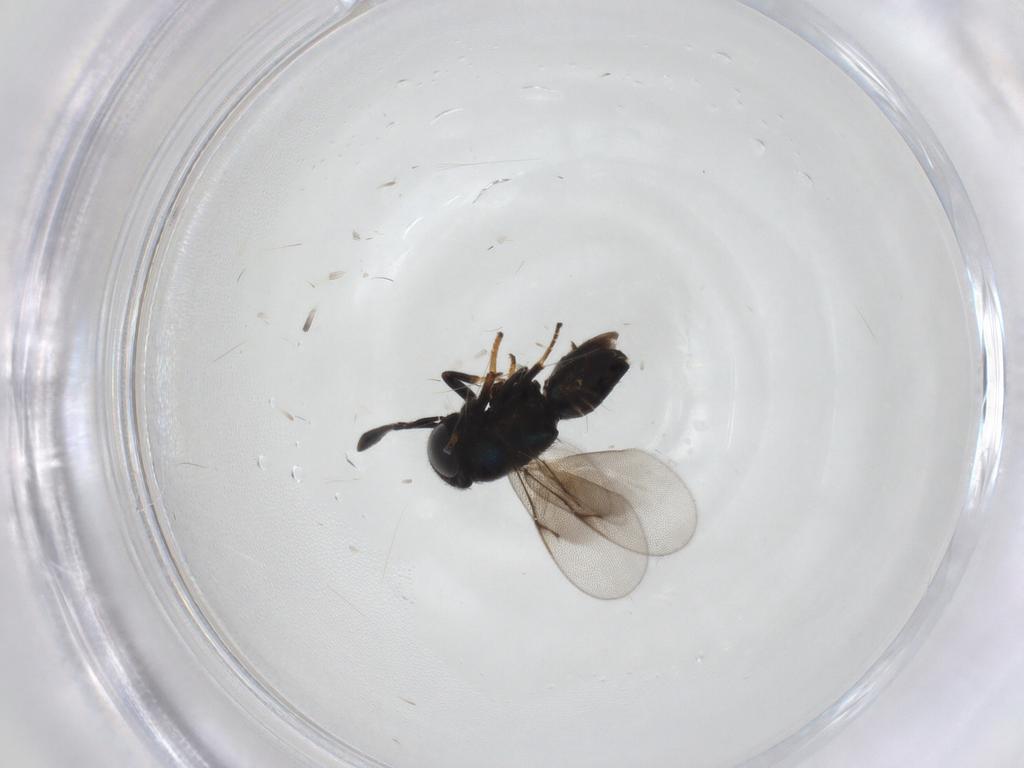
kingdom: Animalia
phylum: Arthropoda
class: Insecta
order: Hymenoptera
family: Encyrtidae
